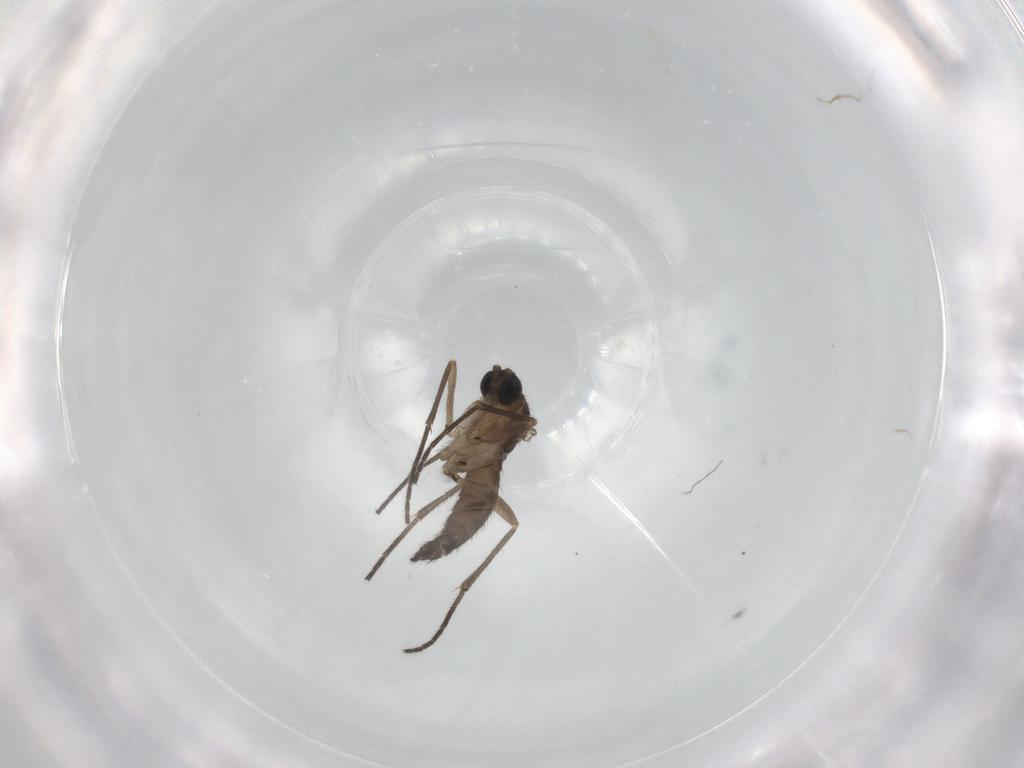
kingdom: Animalia
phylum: Arthropoda
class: Insecta
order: Diptera
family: Sciaridae
